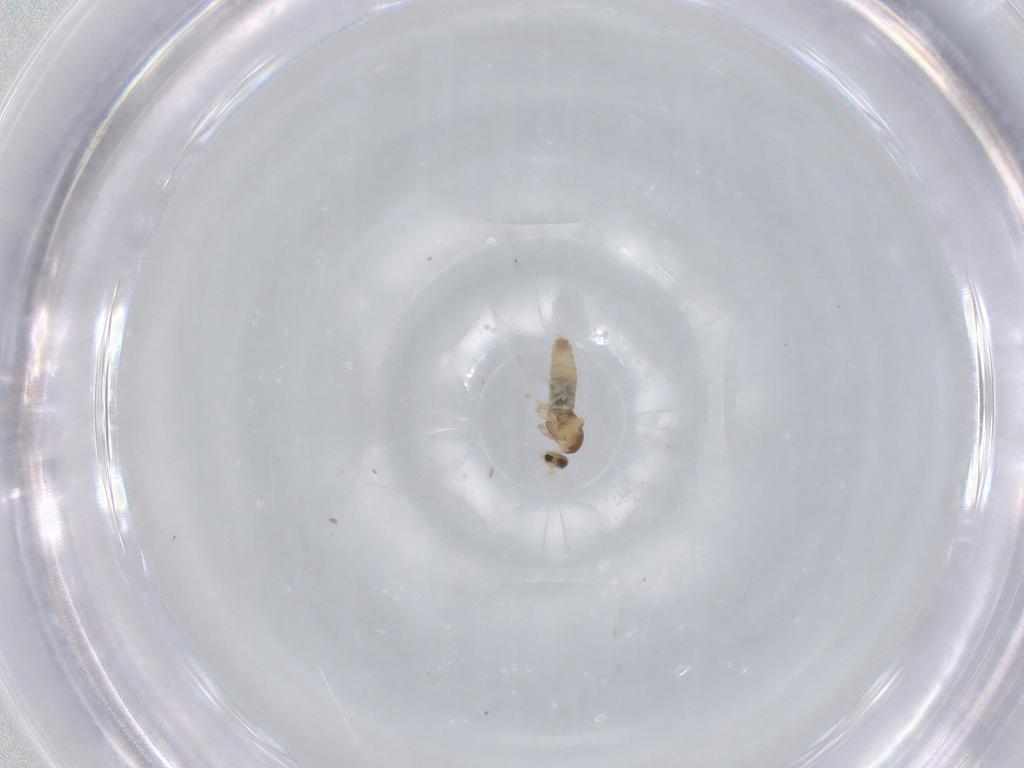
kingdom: Animalia
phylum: Arthropoda
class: Insecta
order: Diptera
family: Cecidomyiidae
